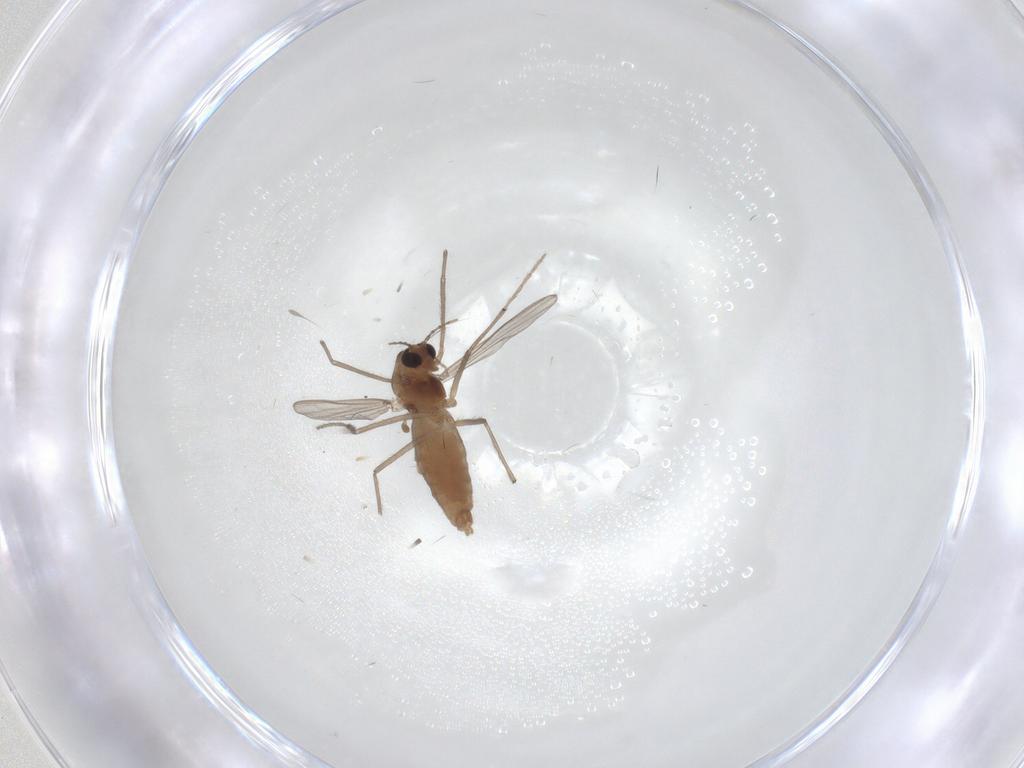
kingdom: Animalia
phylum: Arthropoda
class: Insecta
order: Diptera
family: Chironomidae
